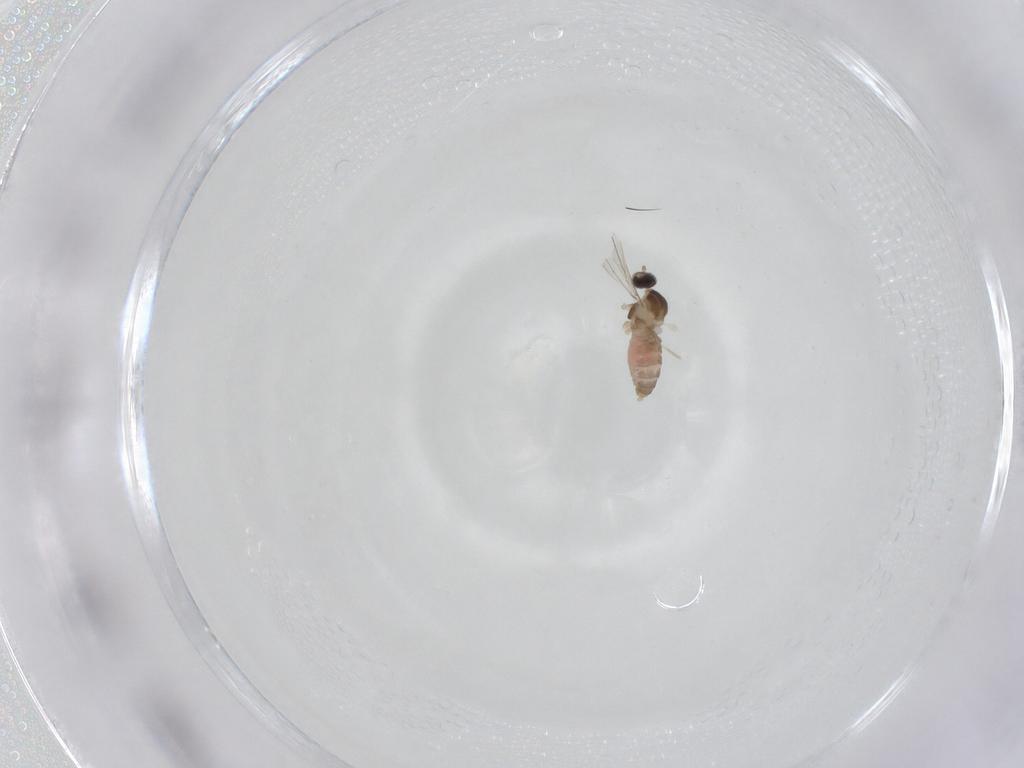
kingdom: Animalia
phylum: Arthropoda
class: Insecta
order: Diptera
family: Cecidomyiidae
